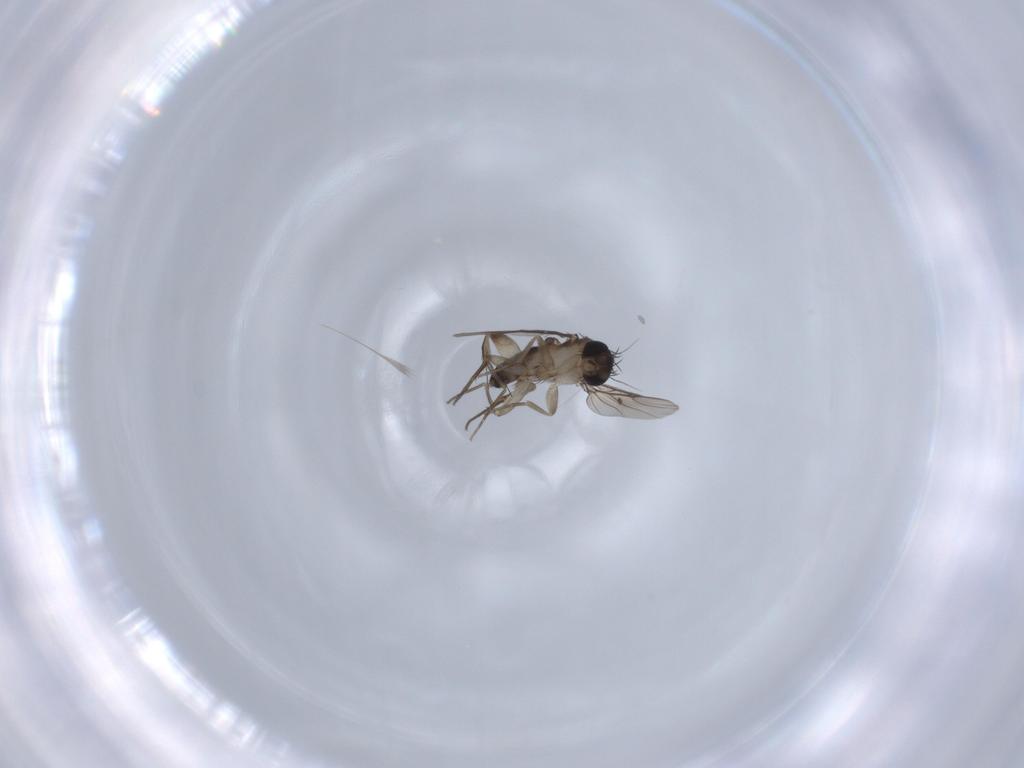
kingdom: Animalia
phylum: Arthropoda
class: Insecta
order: Diptera
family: Phoridae
